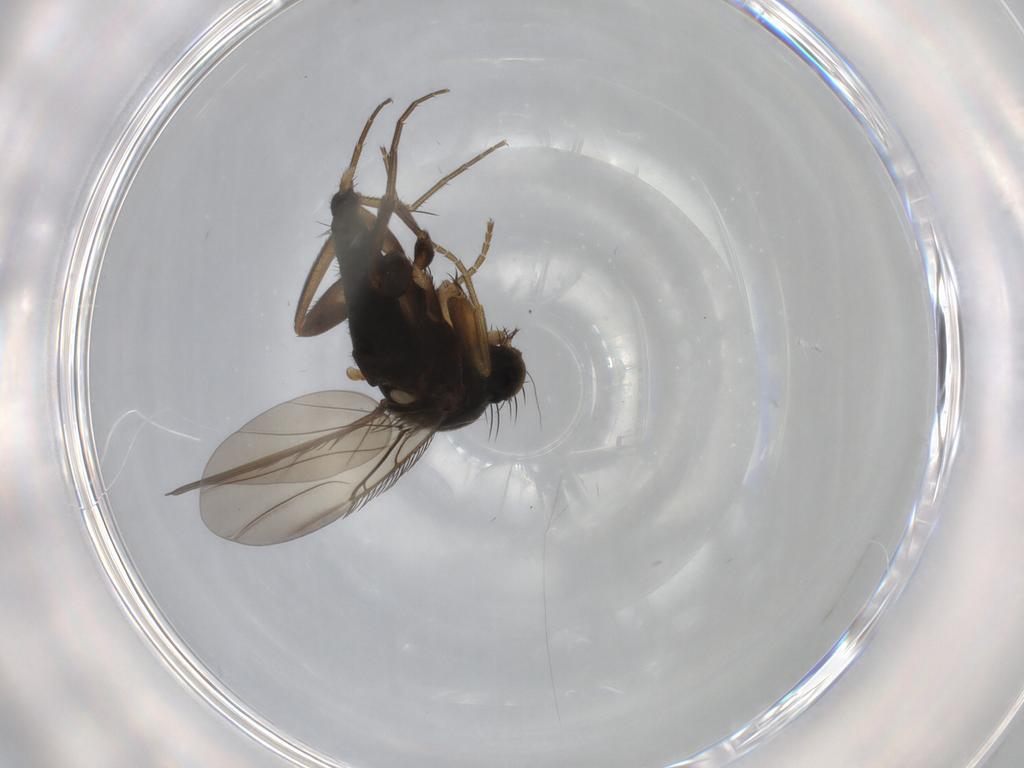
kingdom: Animalia
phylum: Arthropoda
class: Insecta
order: Diptera
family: Phoridae
